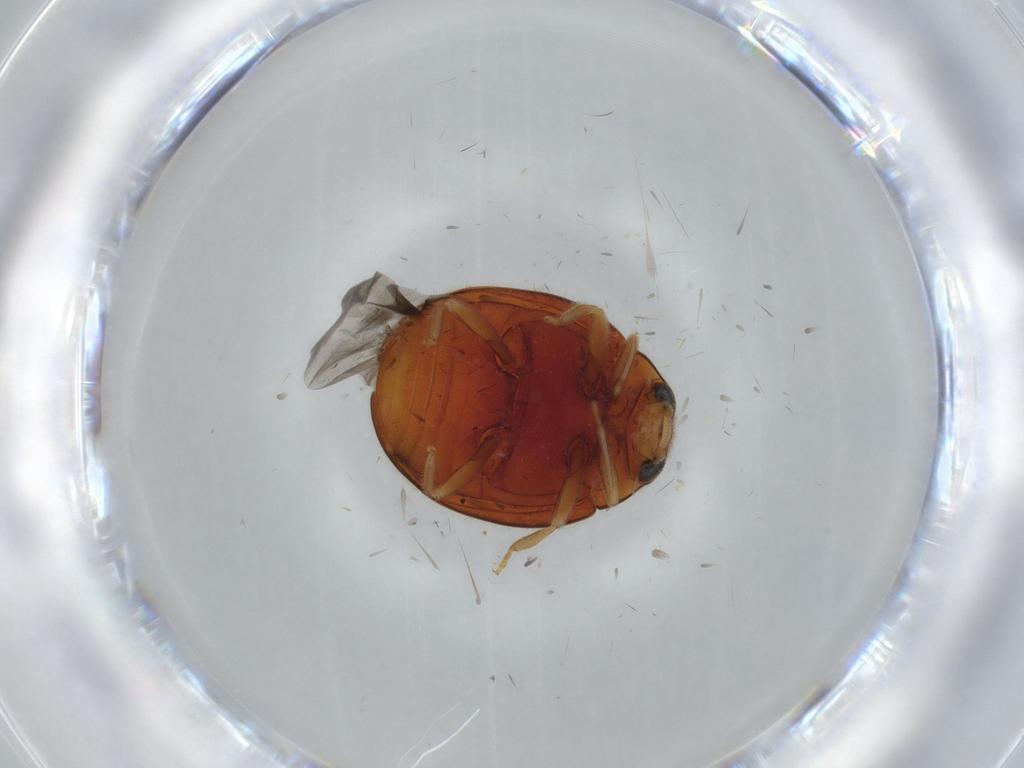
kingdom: Animalia
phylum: Arthropoda
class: Insecta
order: Coleoptera
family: Coccinellidae
